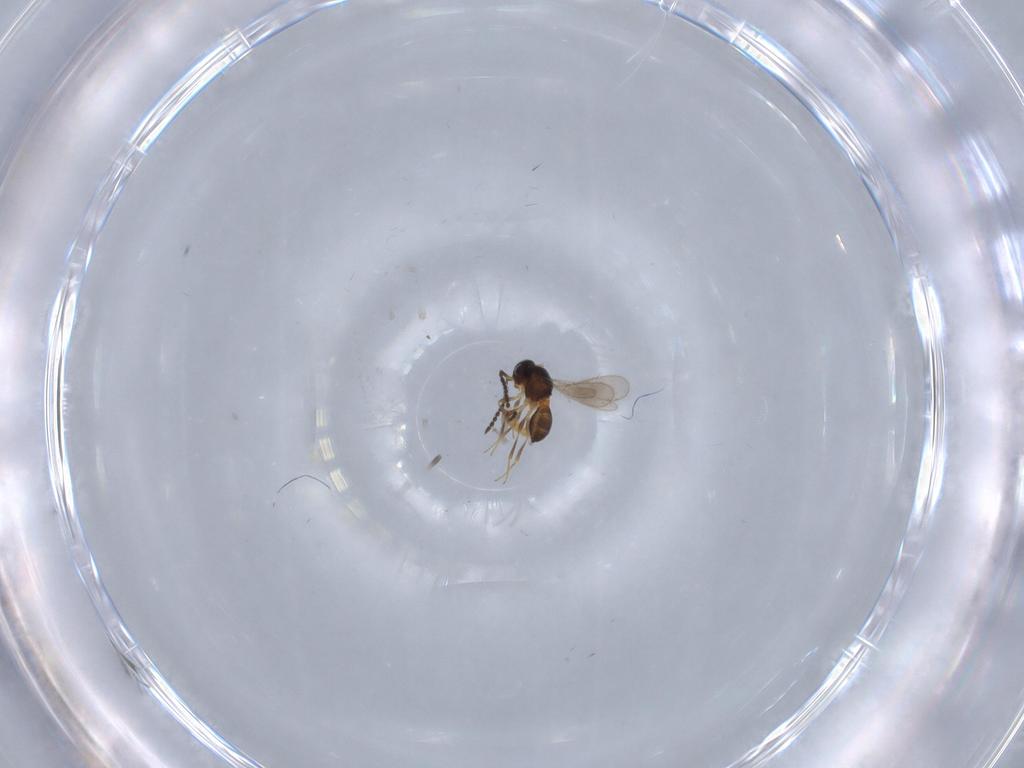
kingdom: Animalia
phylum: Arthropoda
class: Insecta
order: Hymenoptera
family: Scelionidae
